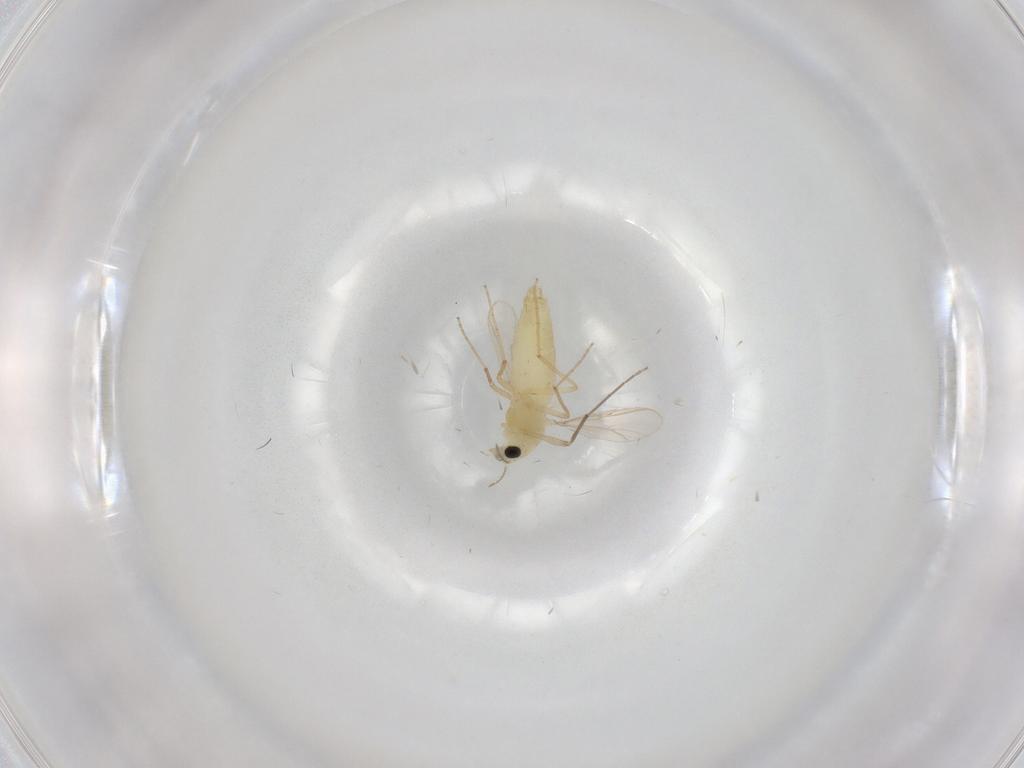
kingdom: Animalia
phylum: Arthropoda
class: Insecta
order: Diptera
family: Chironomidae
